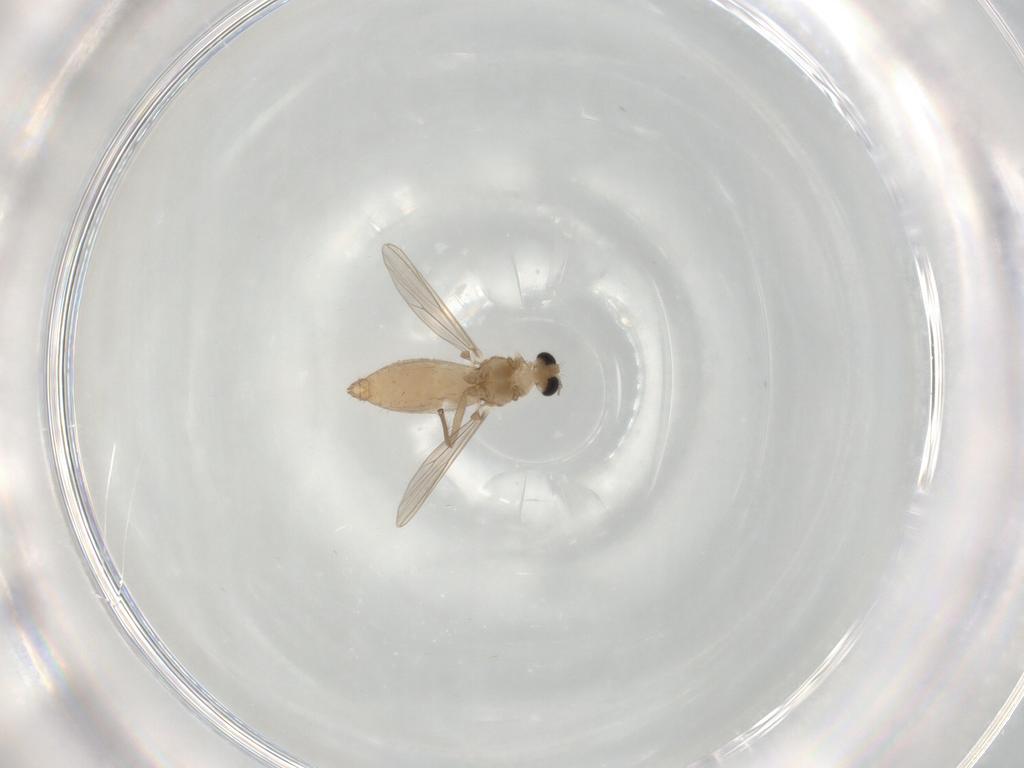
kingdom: Animalia
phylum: Arthropoda
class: Insecta
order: Diptera
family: Chironomidae
